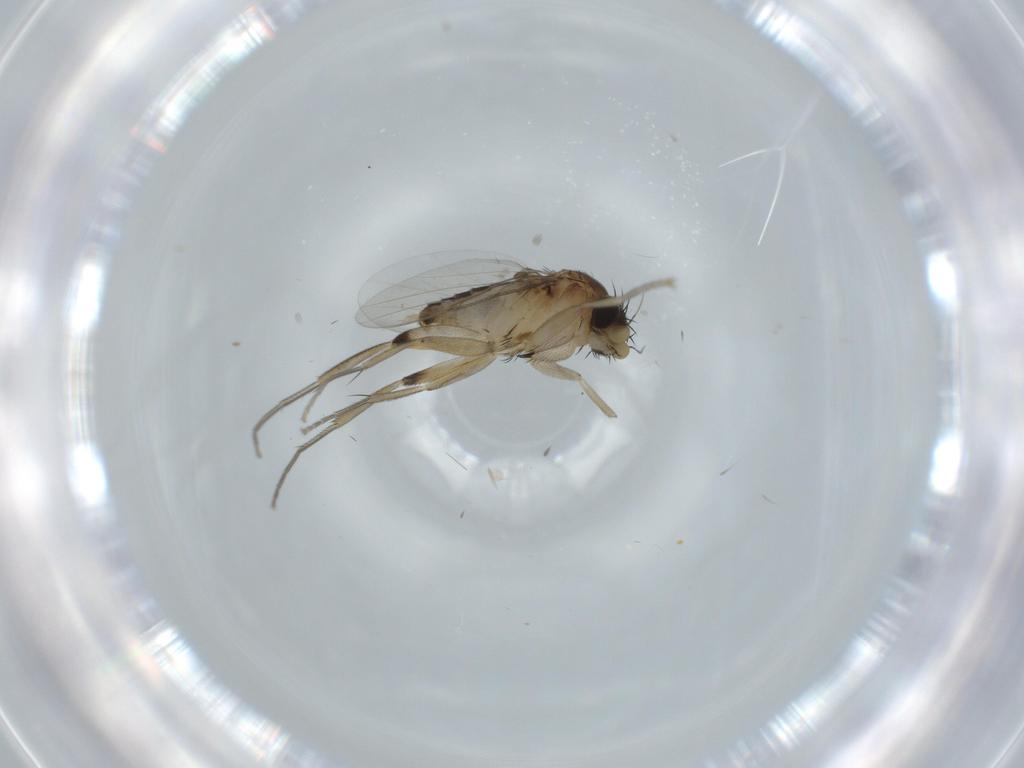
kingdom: Animalia
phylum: Arthropoda
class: Insecta
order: Diptera
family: Phoridae
